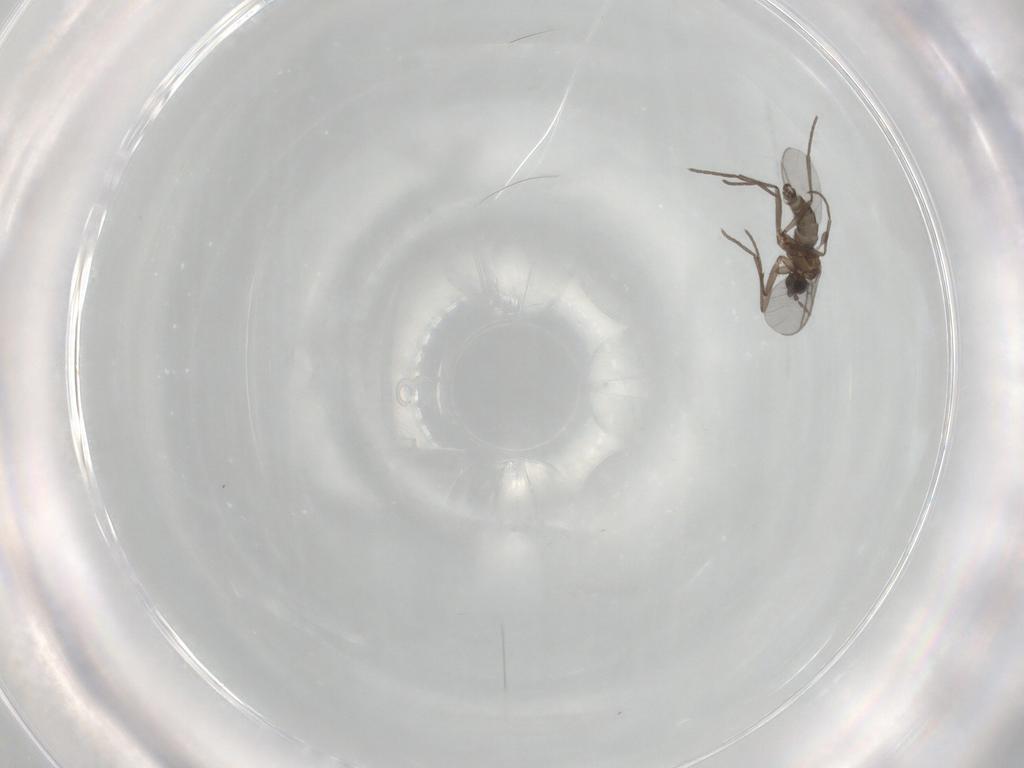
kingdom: Animalia
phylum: Arthropoda
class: Insecta
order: Diptera
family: Sciaridae
